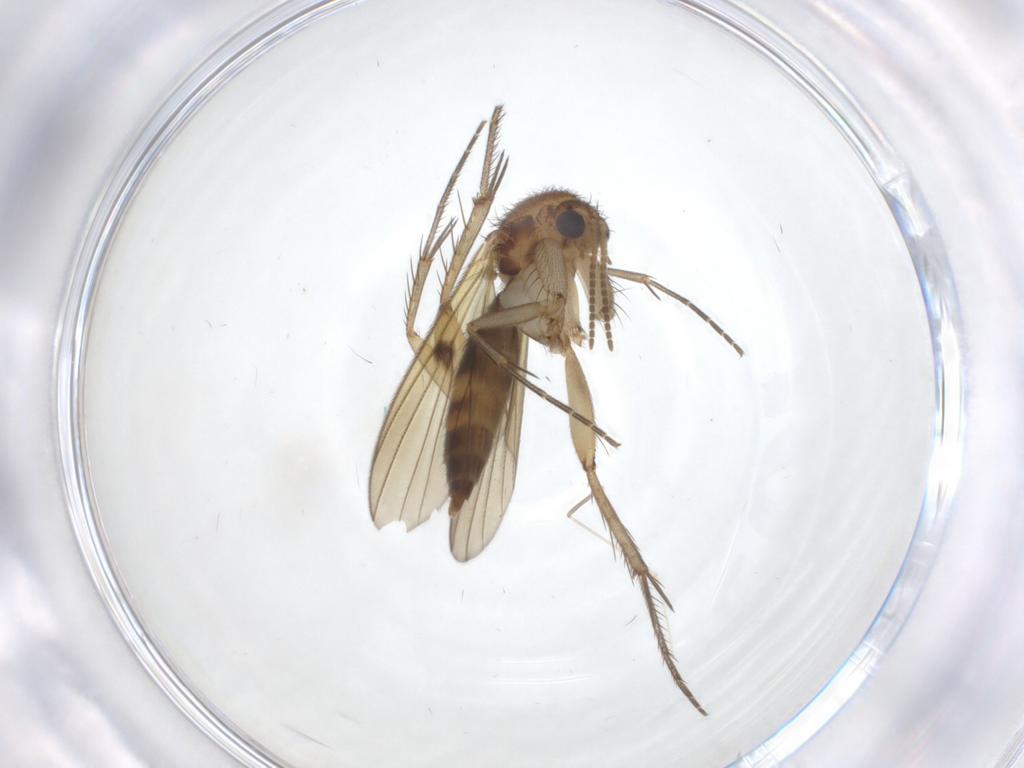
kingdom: Animalia
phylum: Arthropoda
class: Insecta
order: Diptera
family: Mycetophilidae
